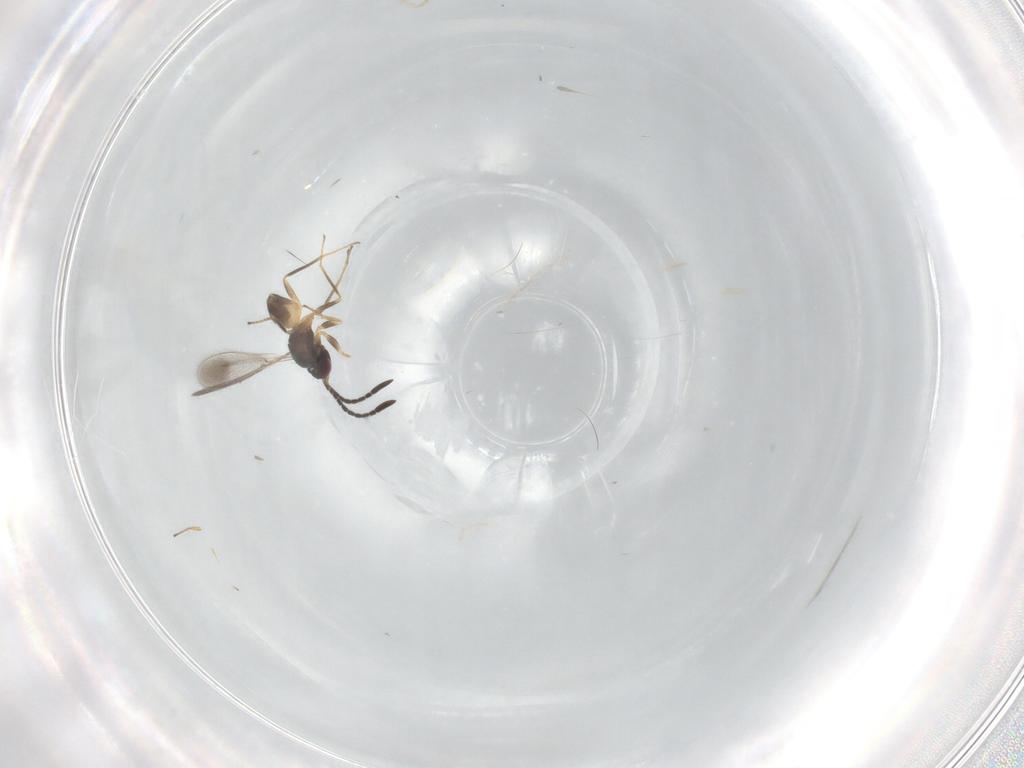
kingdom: Animalia
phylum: Arthropoda
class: Insecta
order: Hymenoptera
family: Mymaridae
